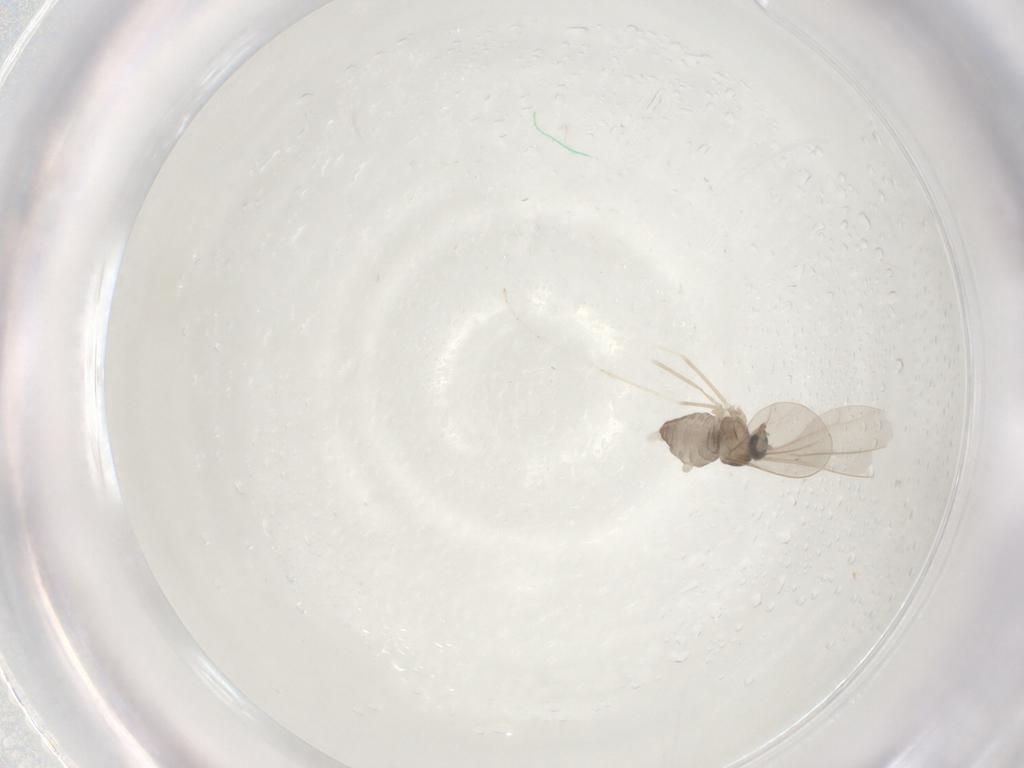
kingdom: Animalia
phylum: Arthropoda
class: Insecta
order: Diptera
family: Cecidomyiidae
